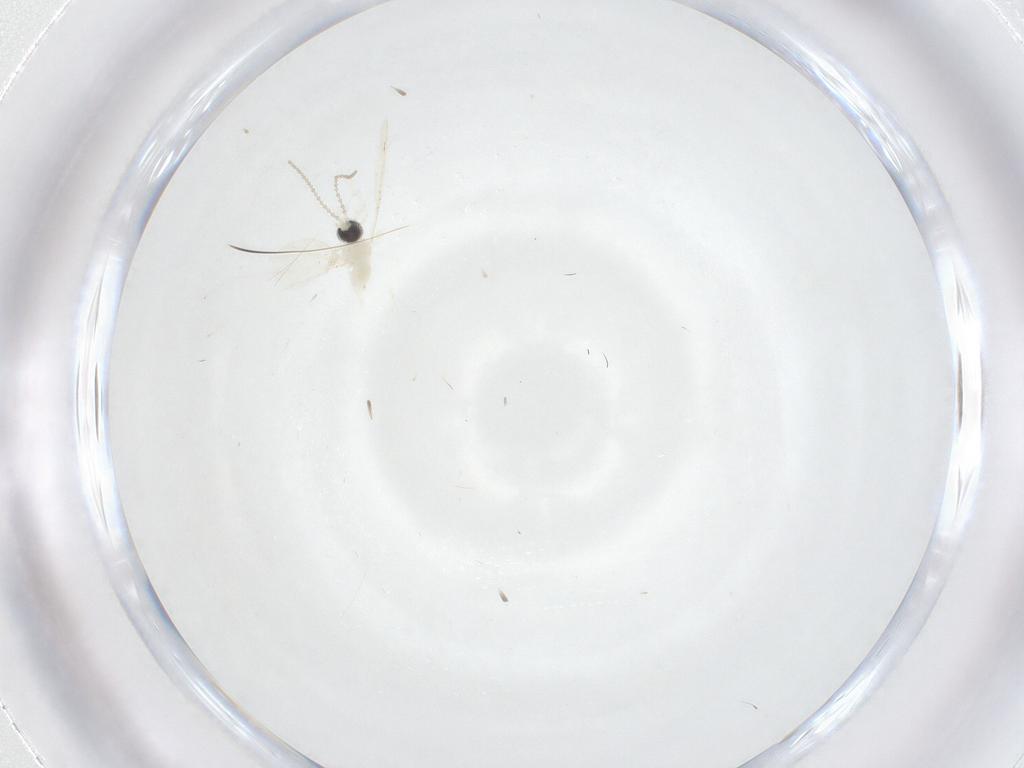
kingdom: Animalia
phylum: Arthropoda
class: Insecta
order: Diptera
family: Cecidomyiidae
